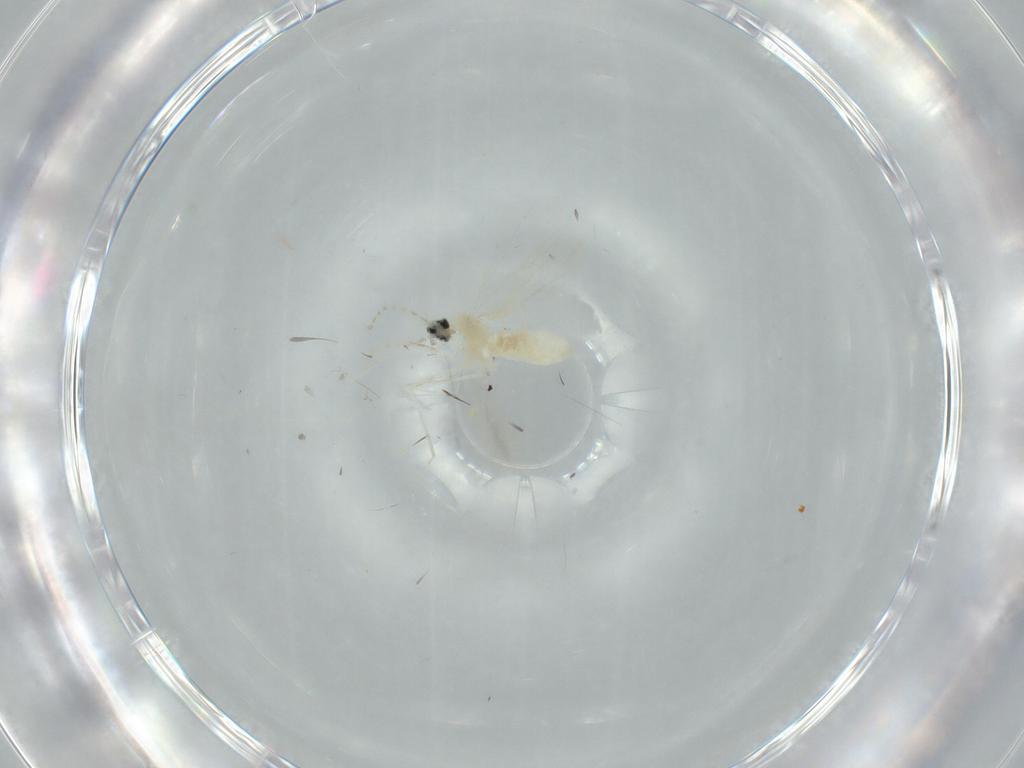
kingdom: Animalia
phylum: Arthropoda
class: Insecta
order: Diptera
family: Cecidomyiidae
